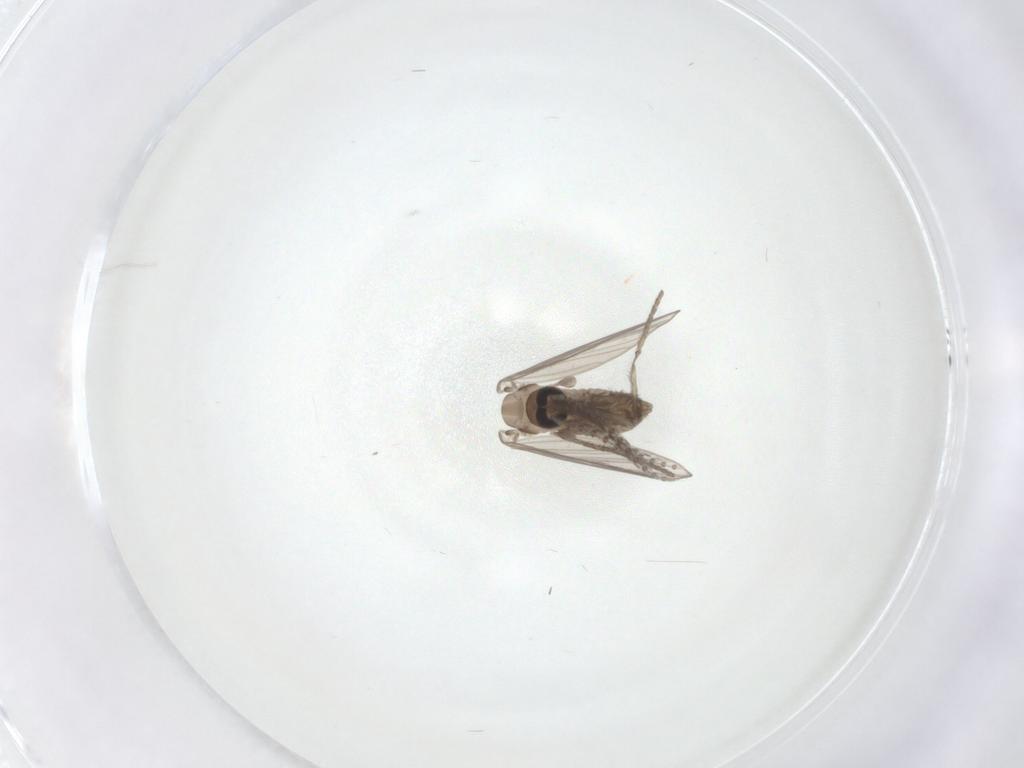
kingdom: Animalia
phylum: Arthropoda
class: Insecta
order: Diptera
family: Psychodidae
